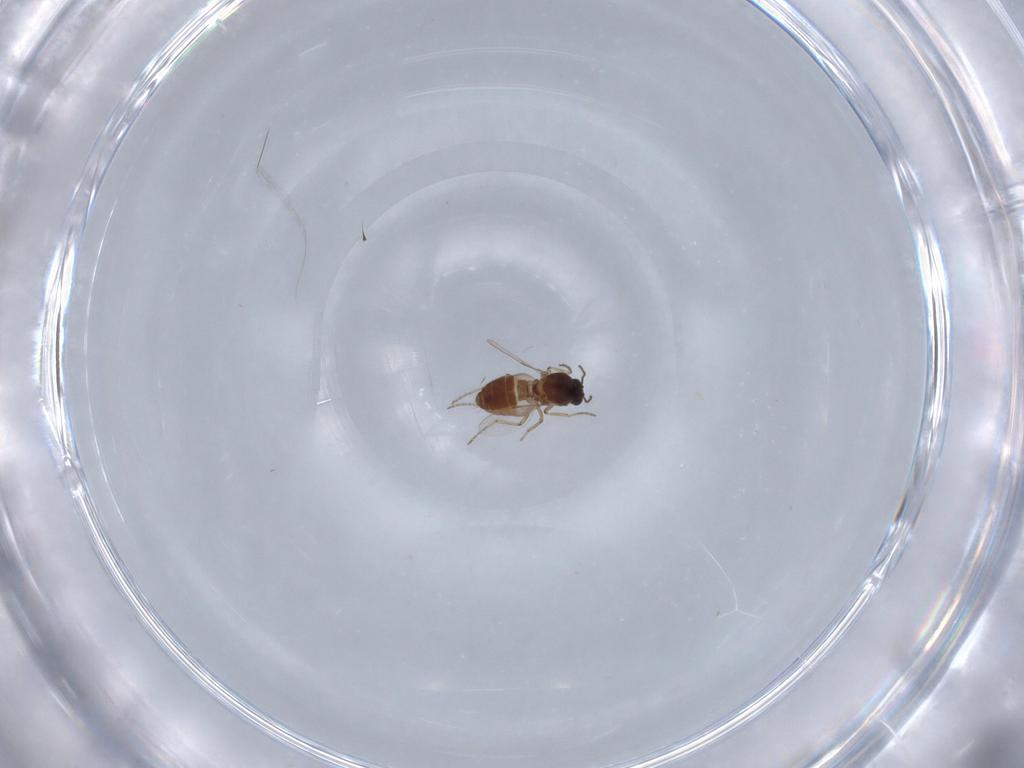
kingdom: Animalia
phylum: Arthropoda
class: Insecta
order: Diptera
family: Ceratopogonidae
